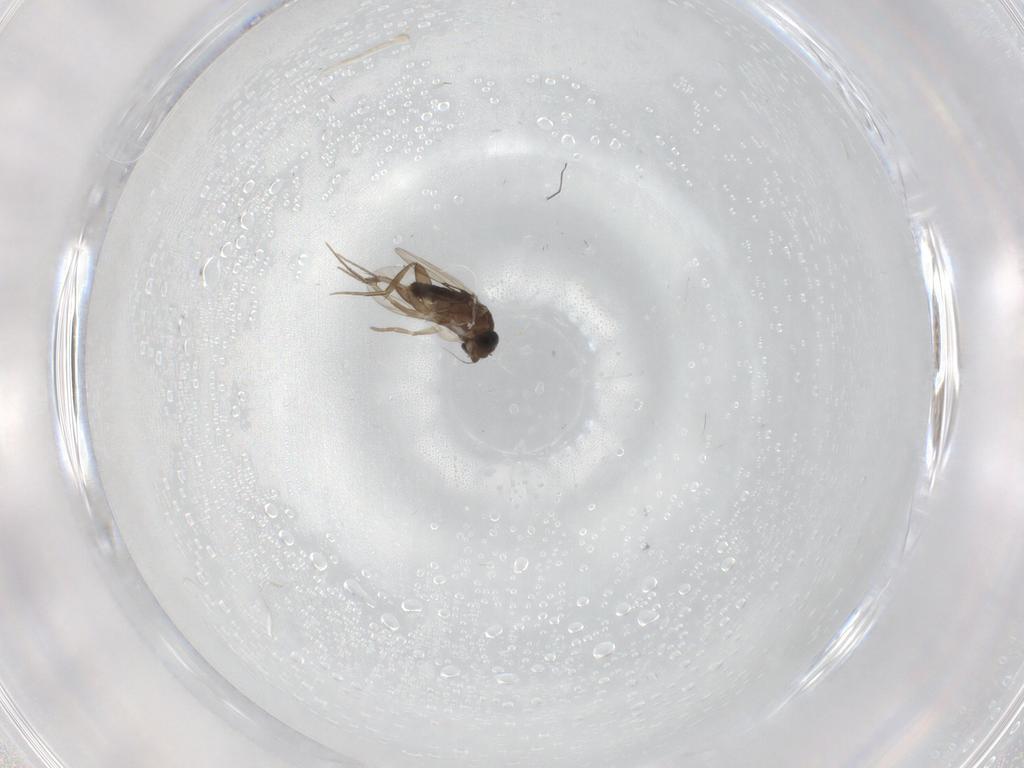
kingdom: Animalia
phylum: Arthropoda
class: Insecta
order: Diptera
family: Phoridae
